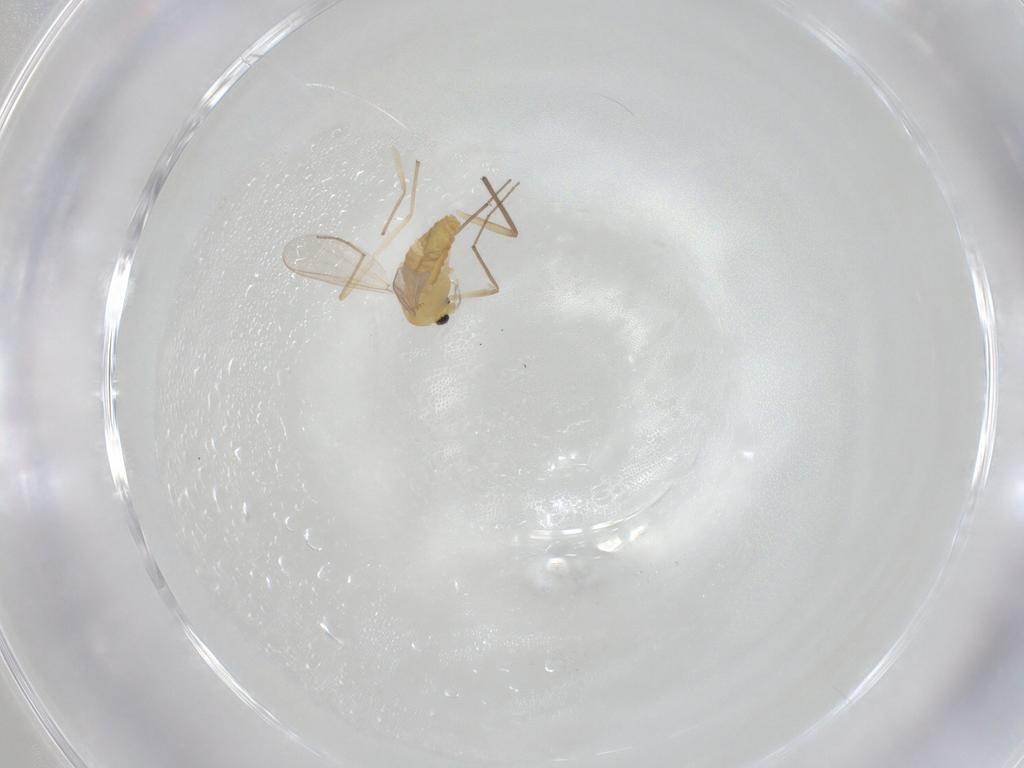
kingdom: Animalia
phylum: Arthropoda
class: Insecta
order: Diptera
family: Chironomidae
